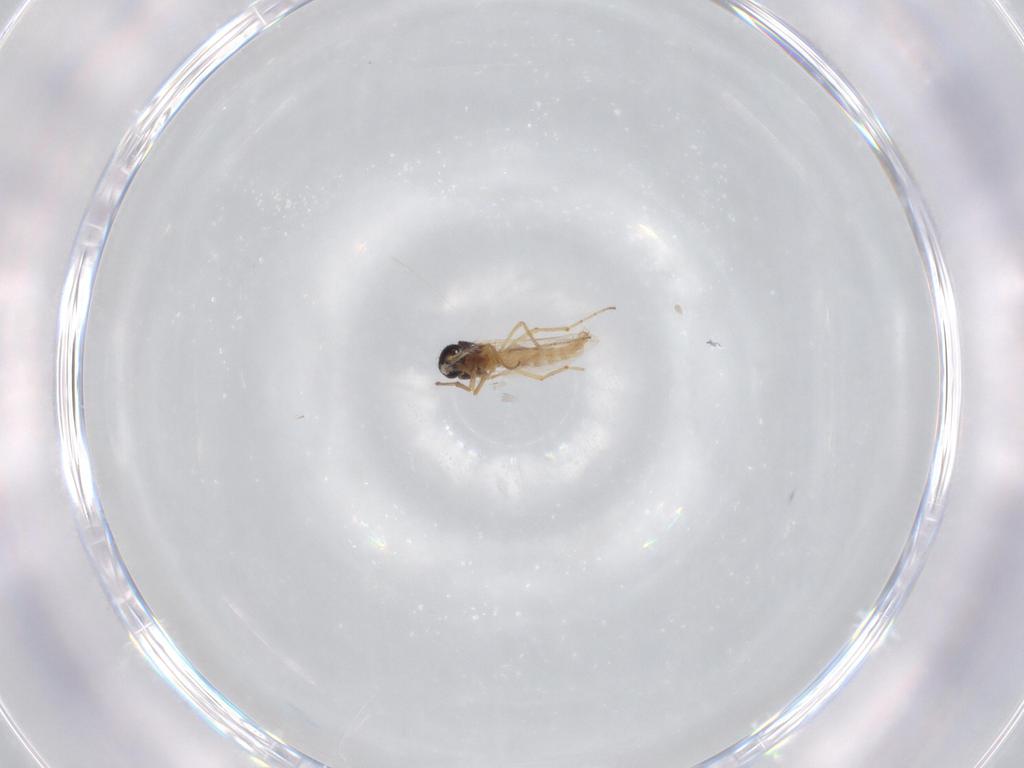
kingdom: Animalia
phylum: Arthropoda
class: Insecta
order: Diptera
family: Ceratopogonidae
